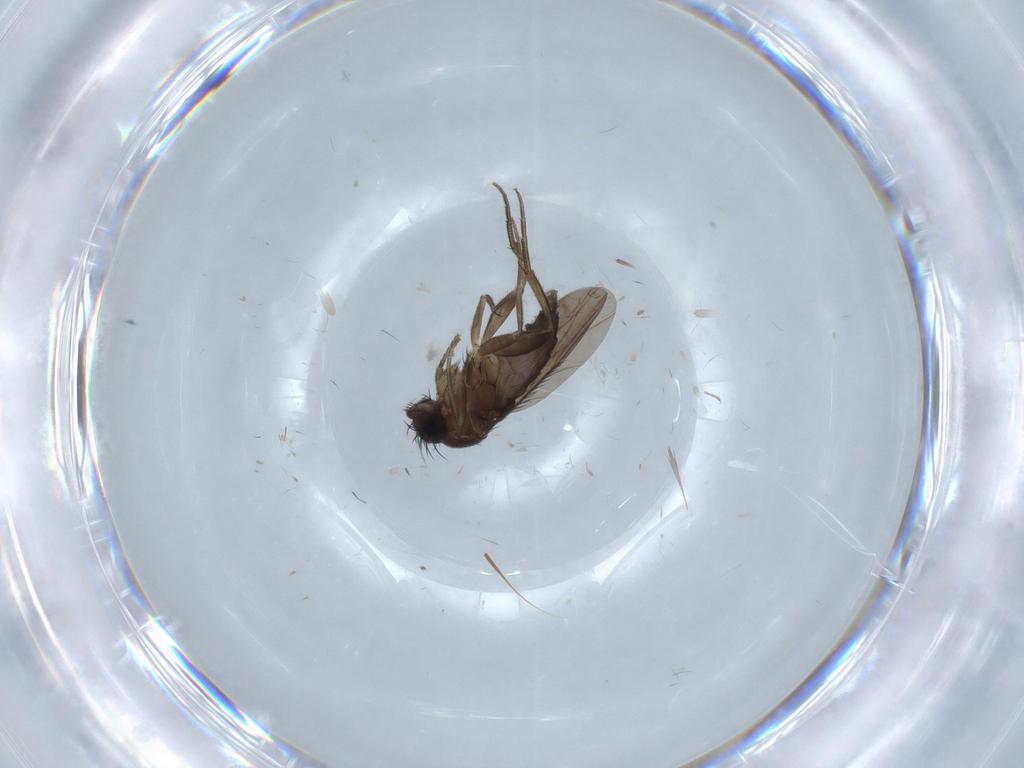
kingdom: Animalia
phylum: Arthropoda
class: Insecta
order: Diptera
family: Phoridae
